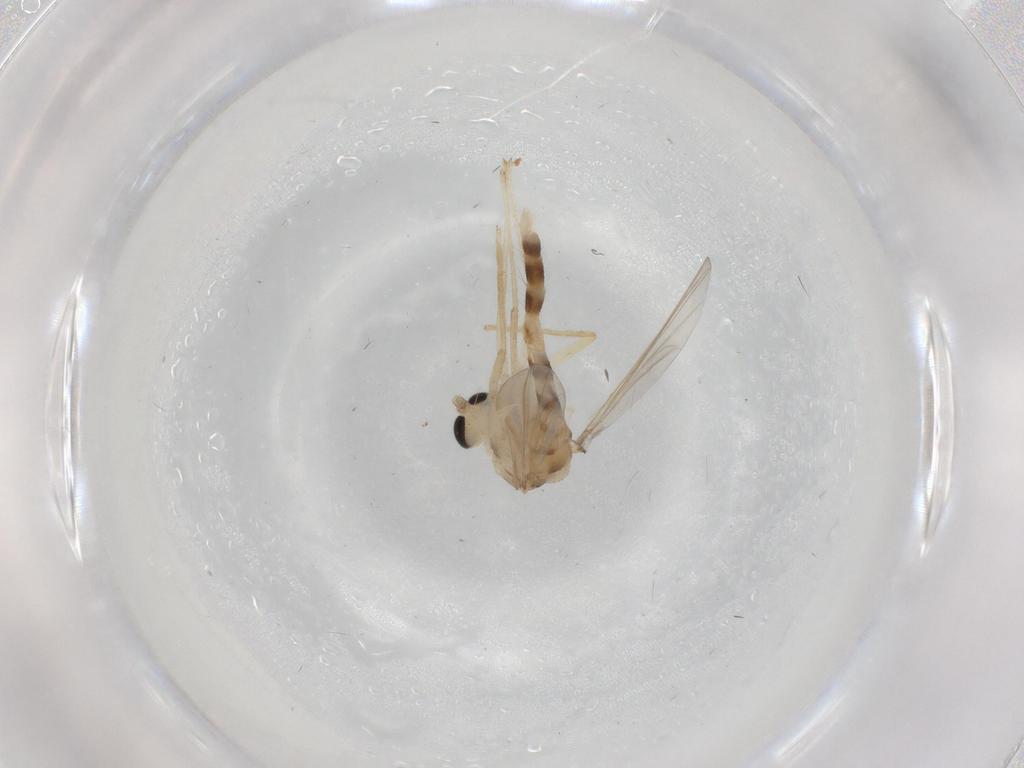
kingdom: Animalia
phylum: Arthropoda
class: Insecta
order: Diptera
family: Chironomidae
